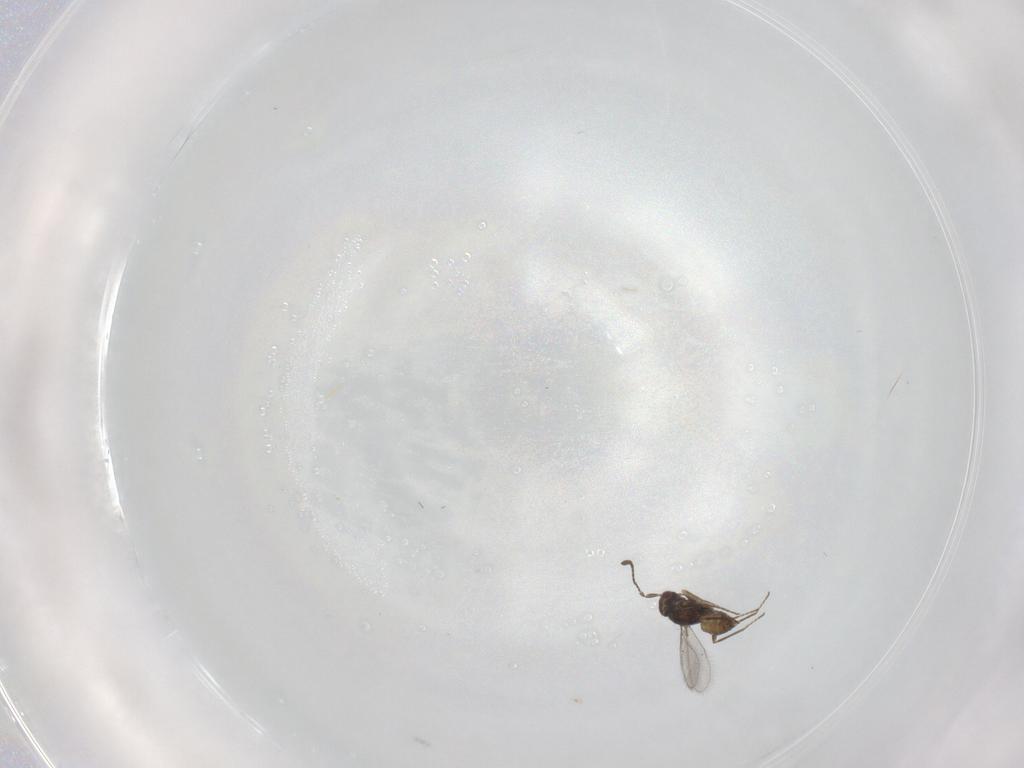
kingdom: Animalia
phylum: Arthropoda
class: Insecta
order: Hymenoptera
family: Mymaridae
